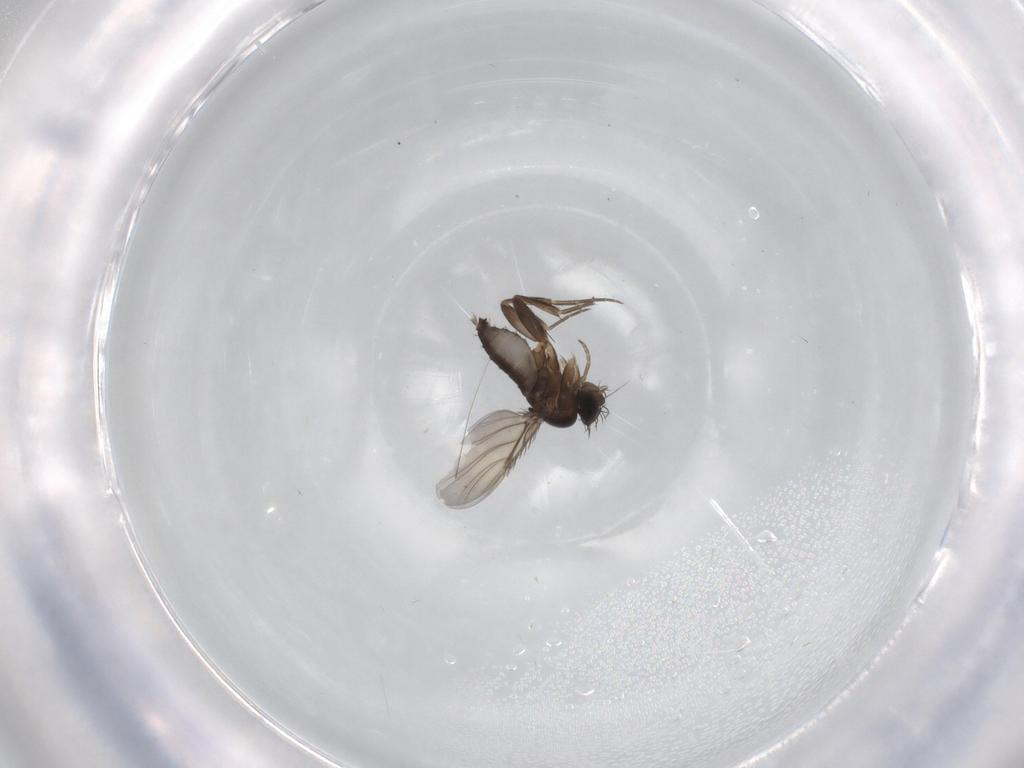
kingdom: Animalia
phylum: Arthropoda
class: Insecta
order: Diptera
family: Phoridae
